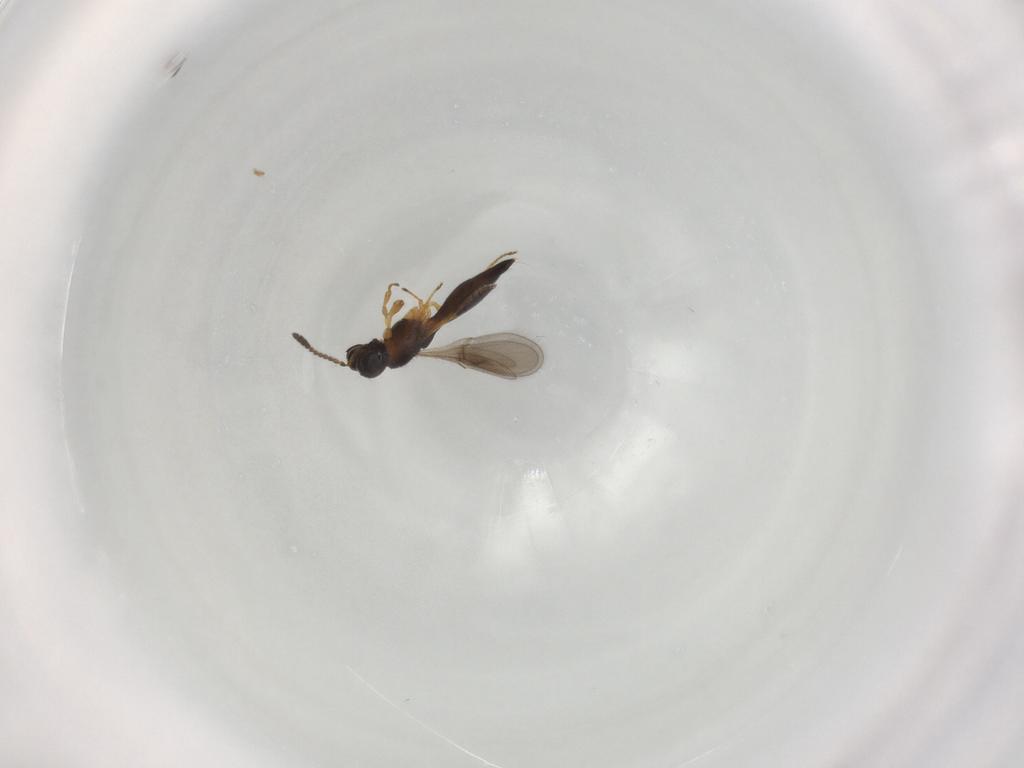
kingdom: Animalia
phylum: Arthropoda
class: Insecta
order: Hymenoptera
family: Scelionidae
